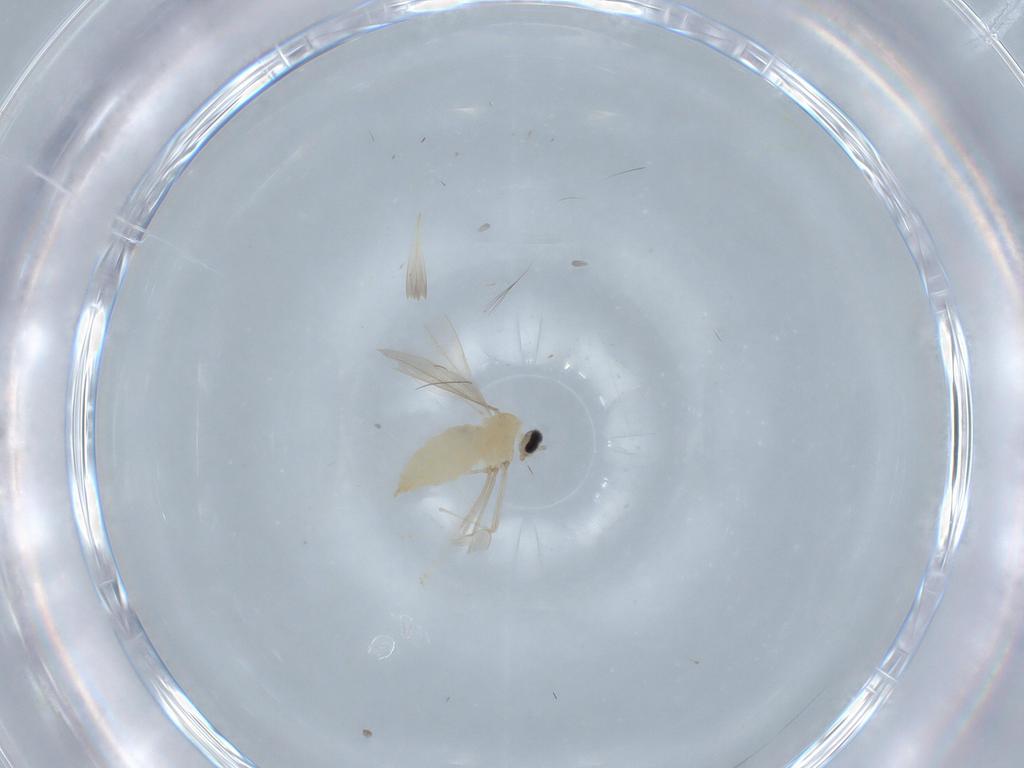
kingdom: Animalia
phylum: Arthropoda
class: Insecta
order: Diptera
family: Cecidomyiidae
